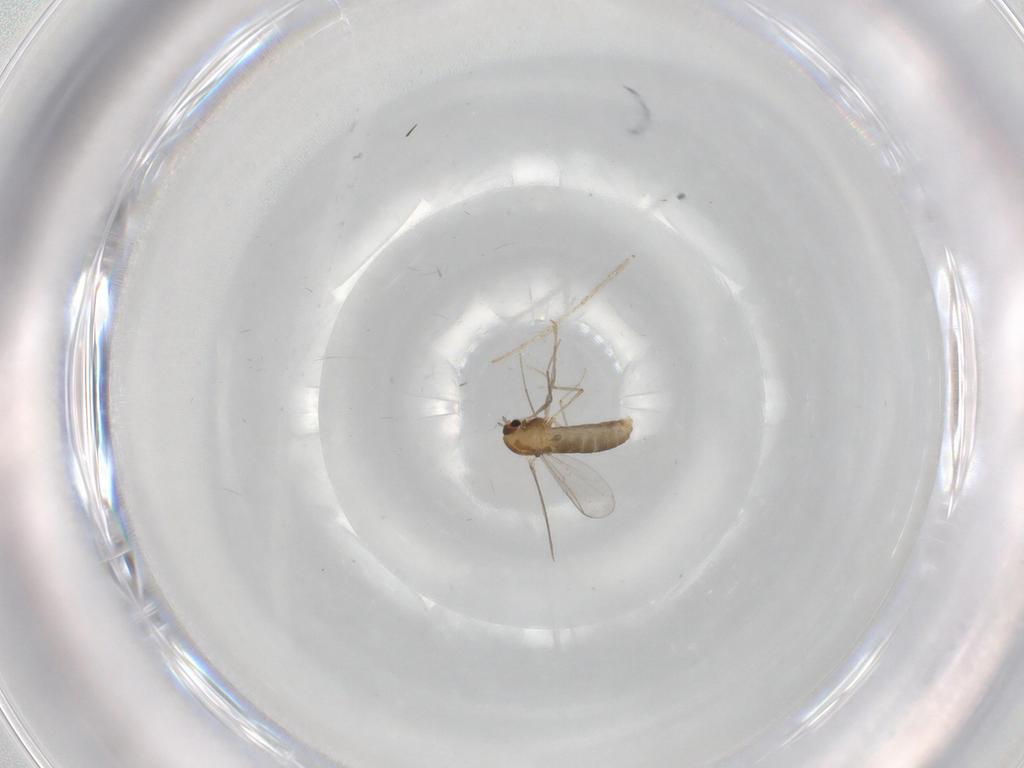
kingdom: Animalia
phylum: Arthropoda
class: Insecta
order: Diptera
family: Chironomidae
